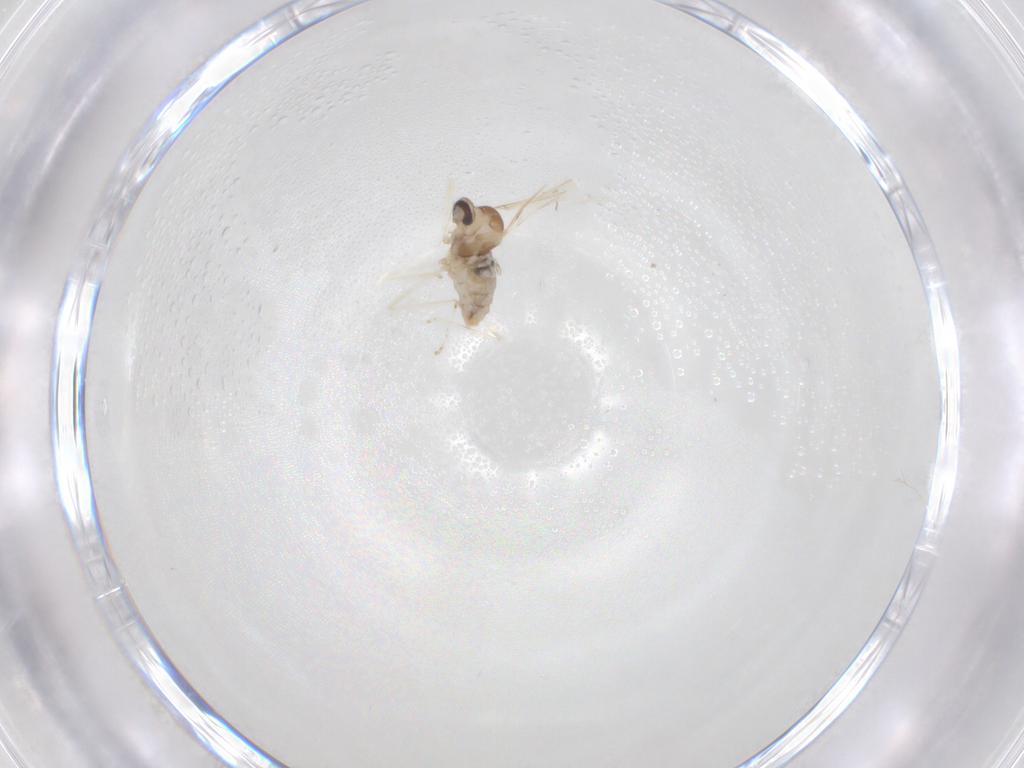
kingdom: Animalia
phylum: Arthropoda
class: Insecta
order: Diptera
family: Cecidomyiidae
